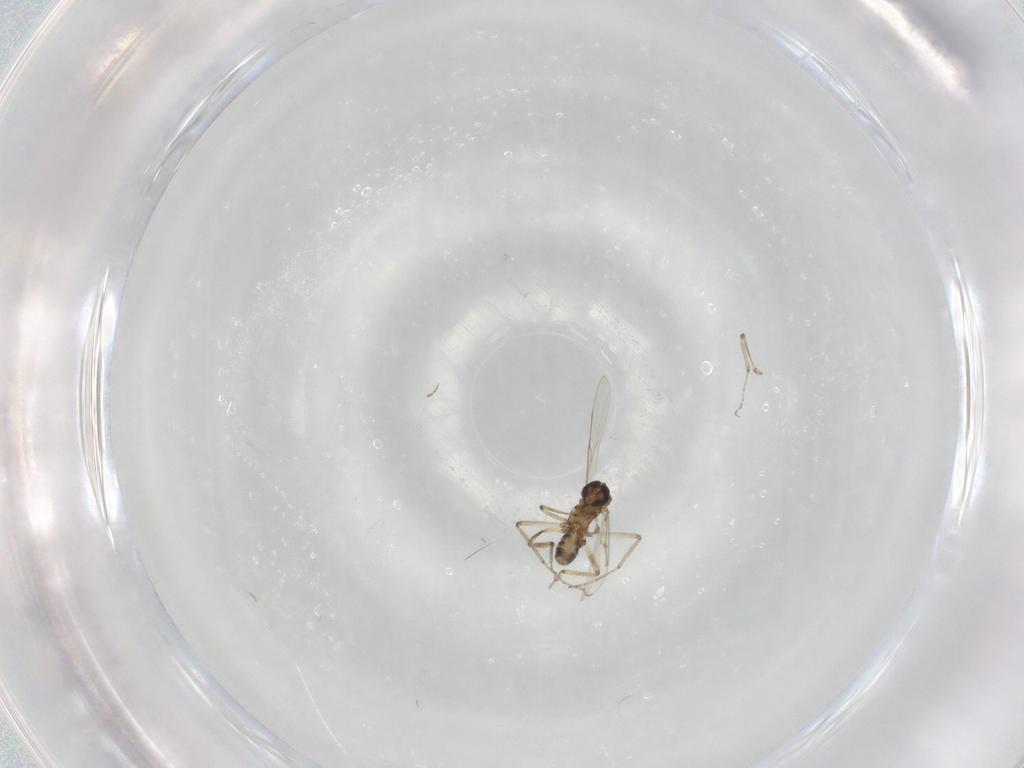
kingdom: Animalia
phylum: Arthropoda
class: Insecta
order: Diptera
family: Ceratopogonidae
